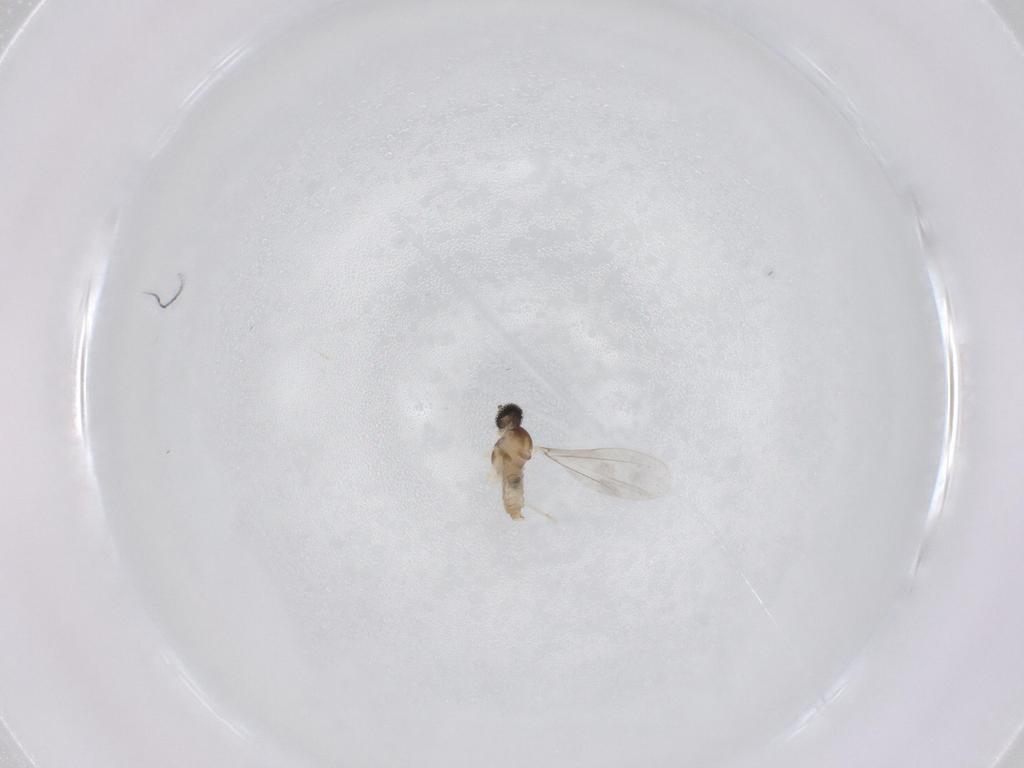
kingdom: Animalia
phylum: Arthropoda
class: Insecta
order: Diptera
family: Cecidomyiidae
